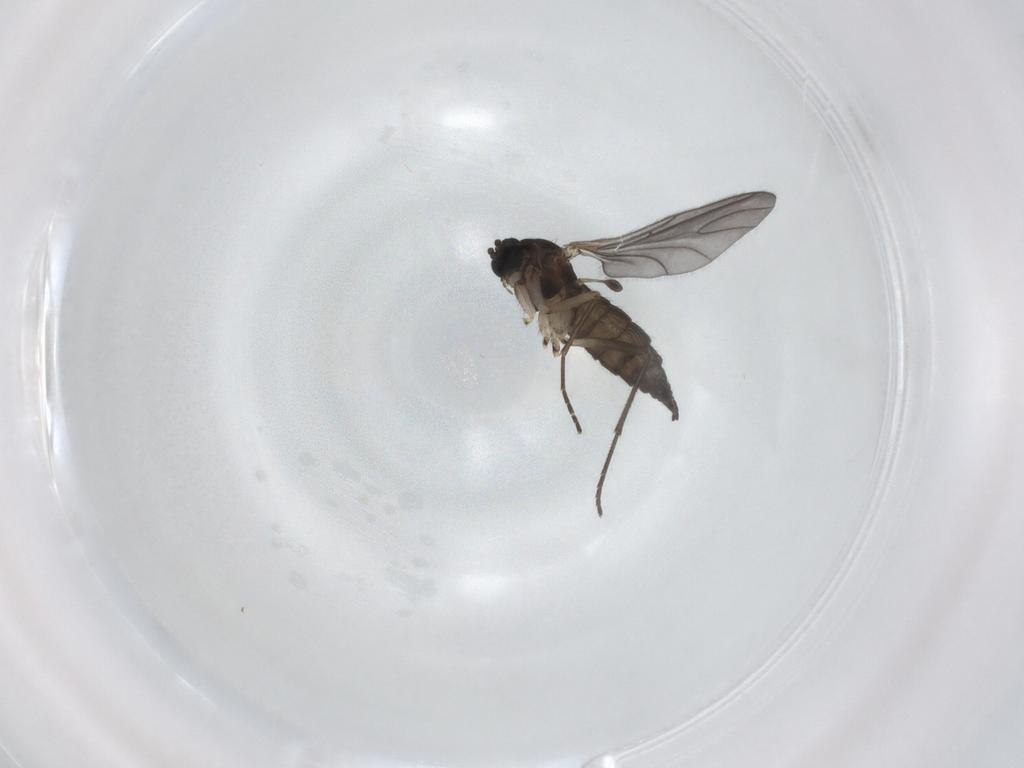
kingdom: Animalia
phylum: Arthropoda
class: Insecta
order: Diptera
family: Sciaridae
